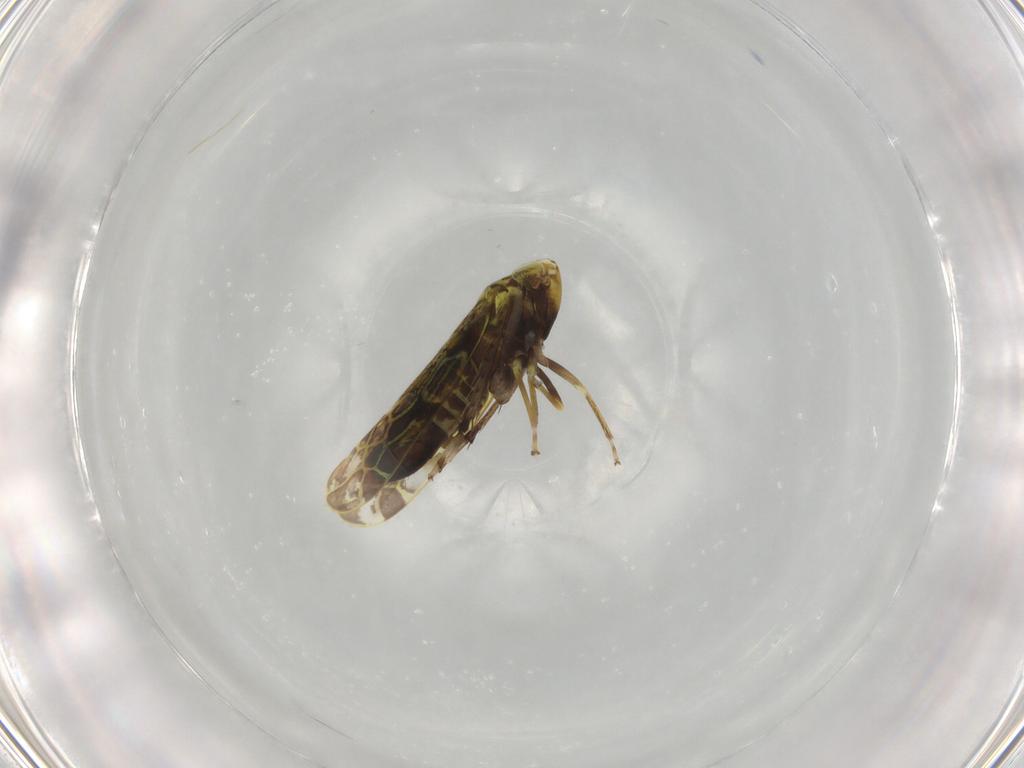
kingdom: Animalia
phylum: Arthropoda
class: Insecta
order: Hemiptera
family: Cicadellidae
